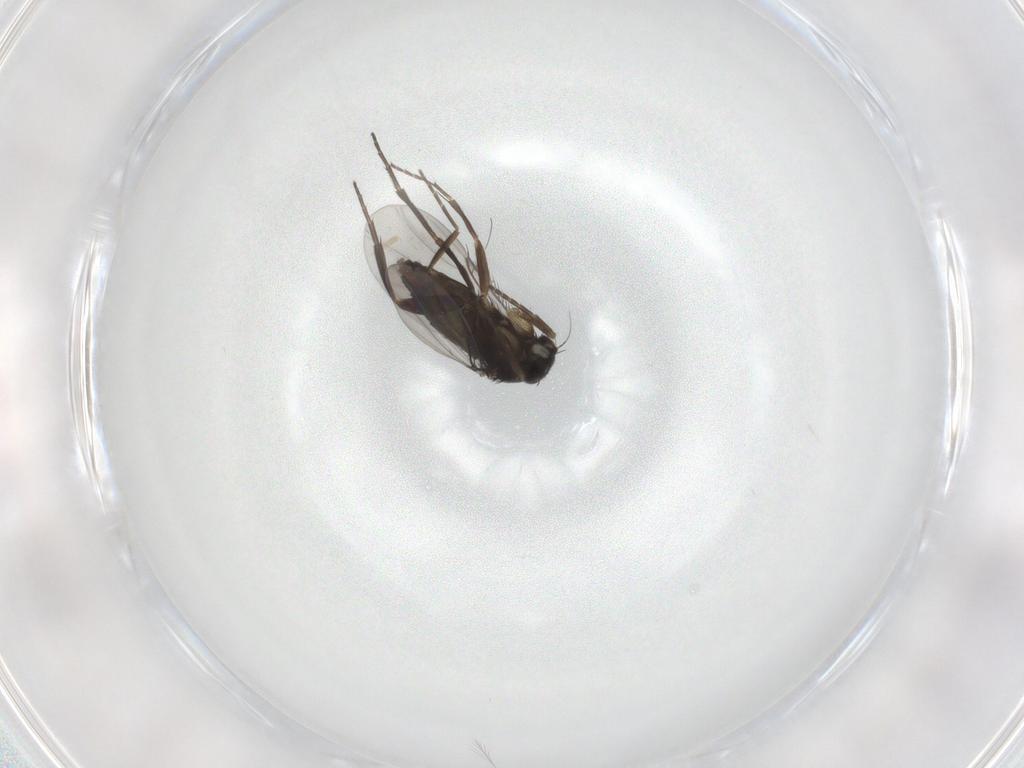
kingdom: Animalia
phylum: Arthropoda
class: Insecta
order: Diptera
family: Phoridae
